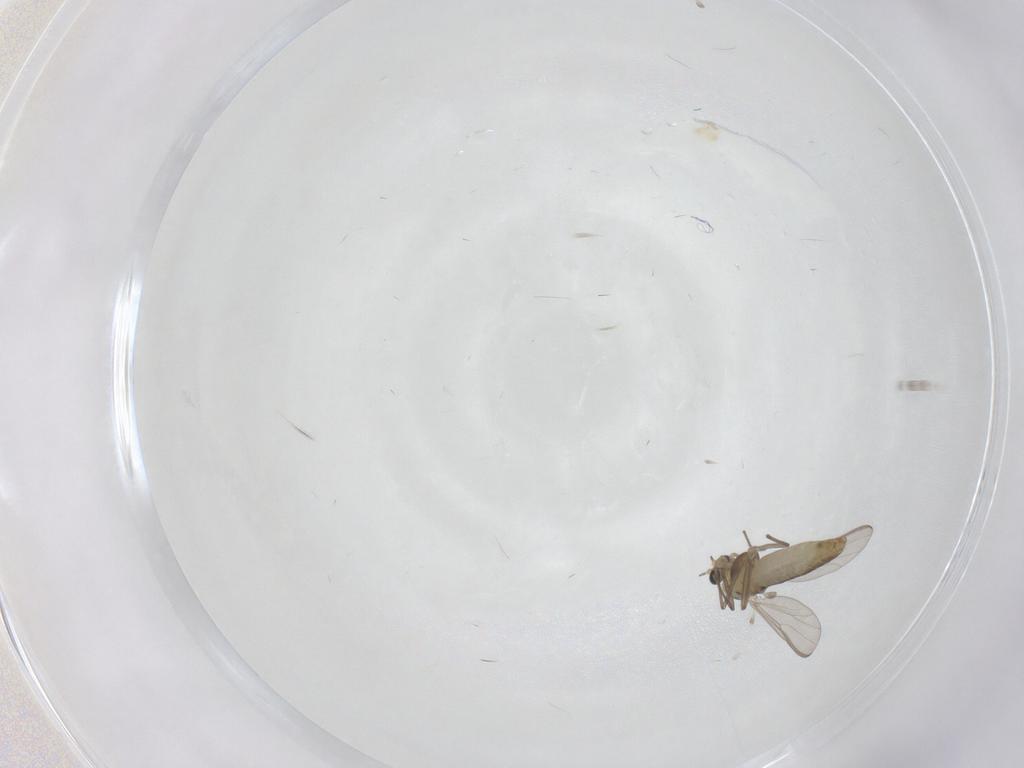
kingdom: Animalia
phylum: Arthropoda
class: Insecta
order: Diptera
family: Chironomidae
